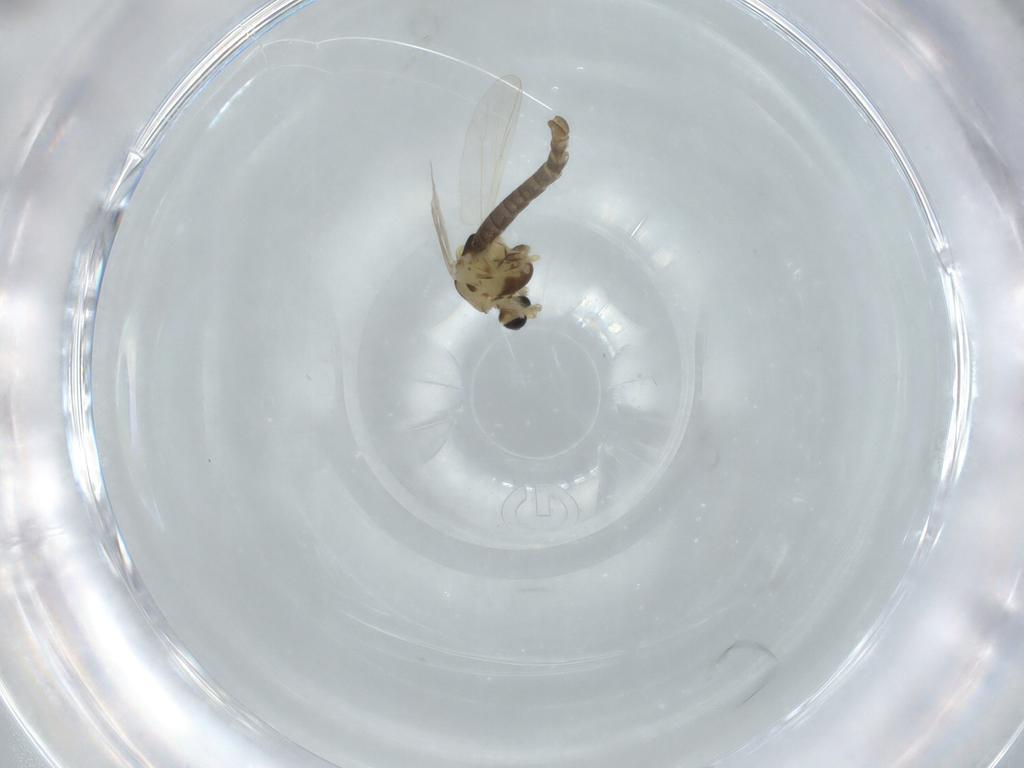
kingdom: Animalia
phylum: Arthropoda
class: Insecta
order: Diptera
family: Chironomidae
